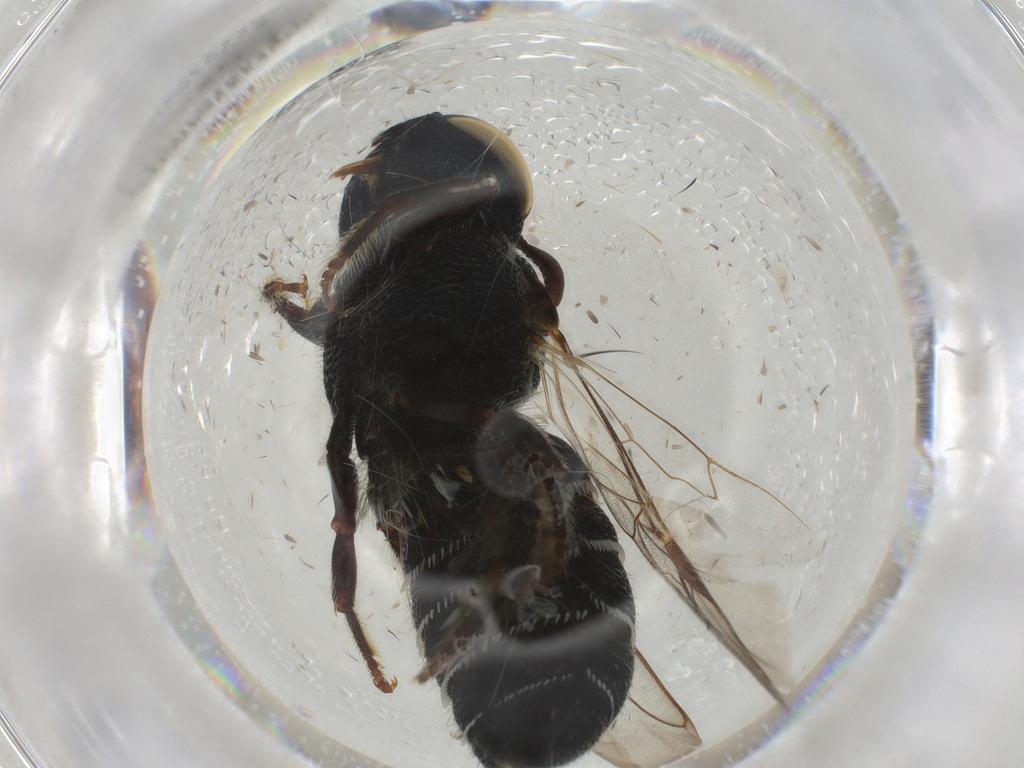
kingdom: Animalia
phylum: Arthropoda
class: Insecta
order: Hymenoptera
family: Apidae
